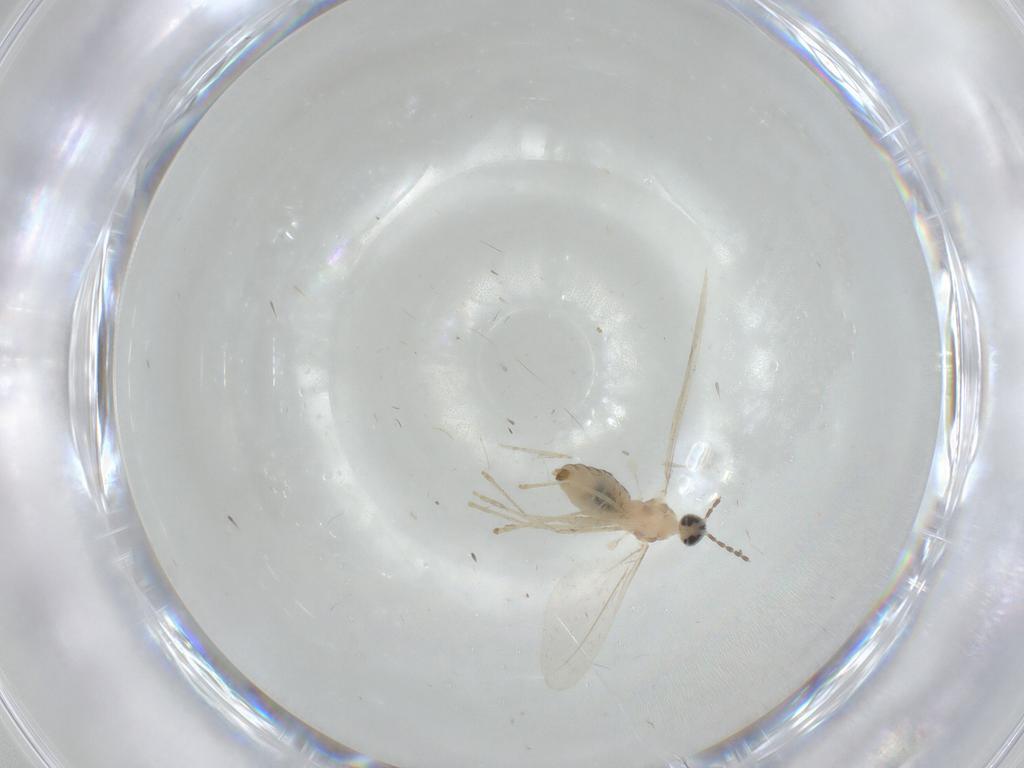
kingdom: Animalia
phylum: Arthropoda
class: Insecta
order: Diptera
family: Cecidomyiidae
